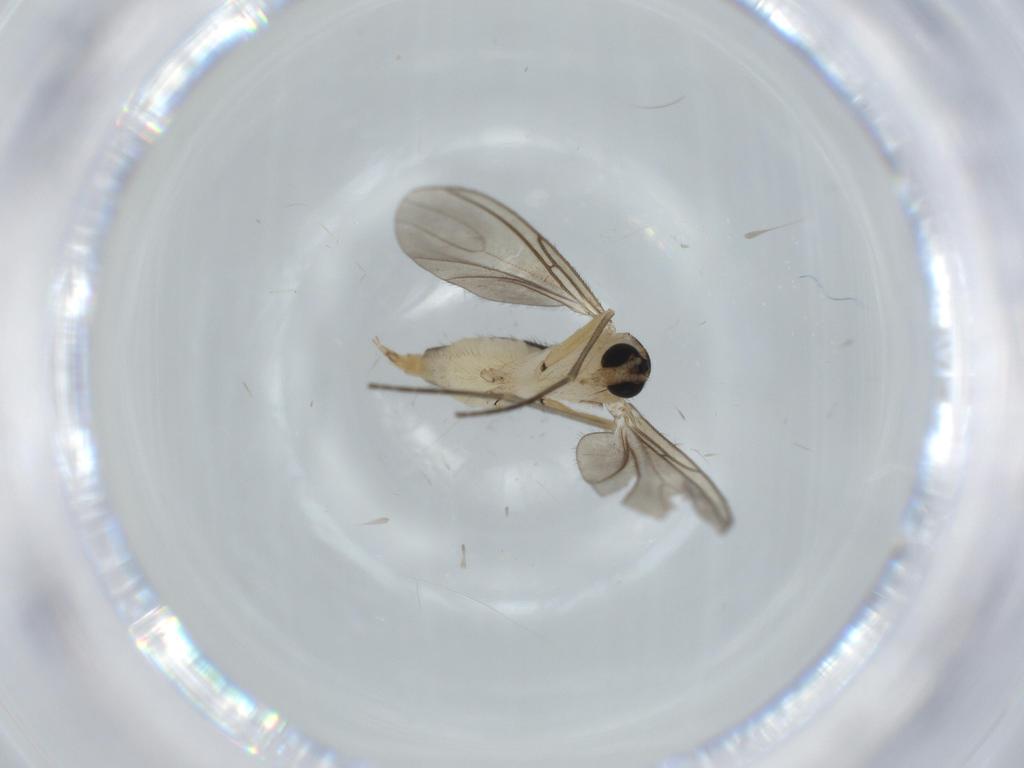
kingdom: Animalia
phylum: Arthropoda
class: Insecta
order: Diptera
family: Sciaridae
